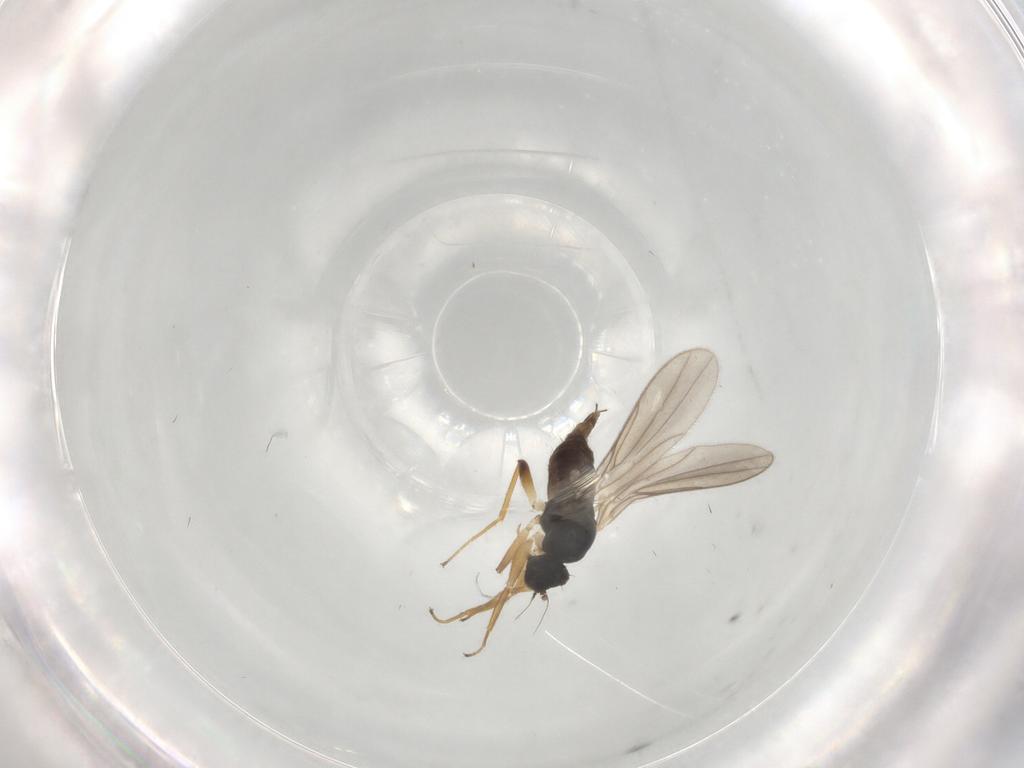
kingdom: Animalia
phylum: Arthropoda
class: Insecta
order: Diptera
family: Hybotidae
